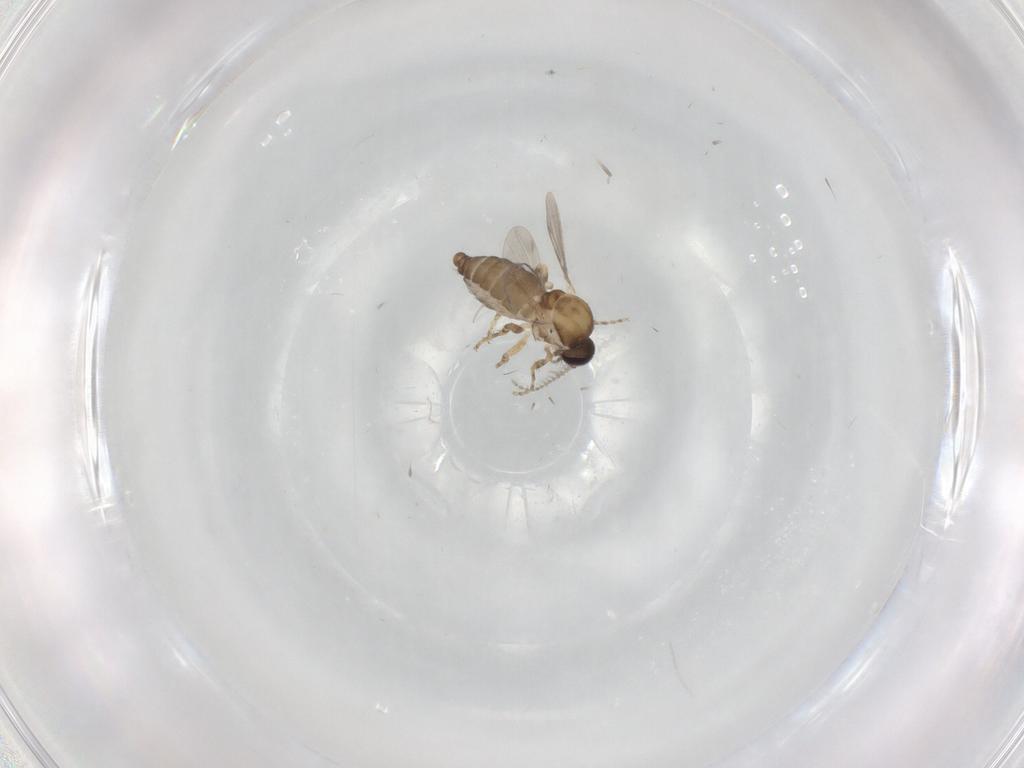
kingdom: Animalia
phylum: Arthropoda
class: Insecta
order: Diptera
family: Ceratopogonidae
